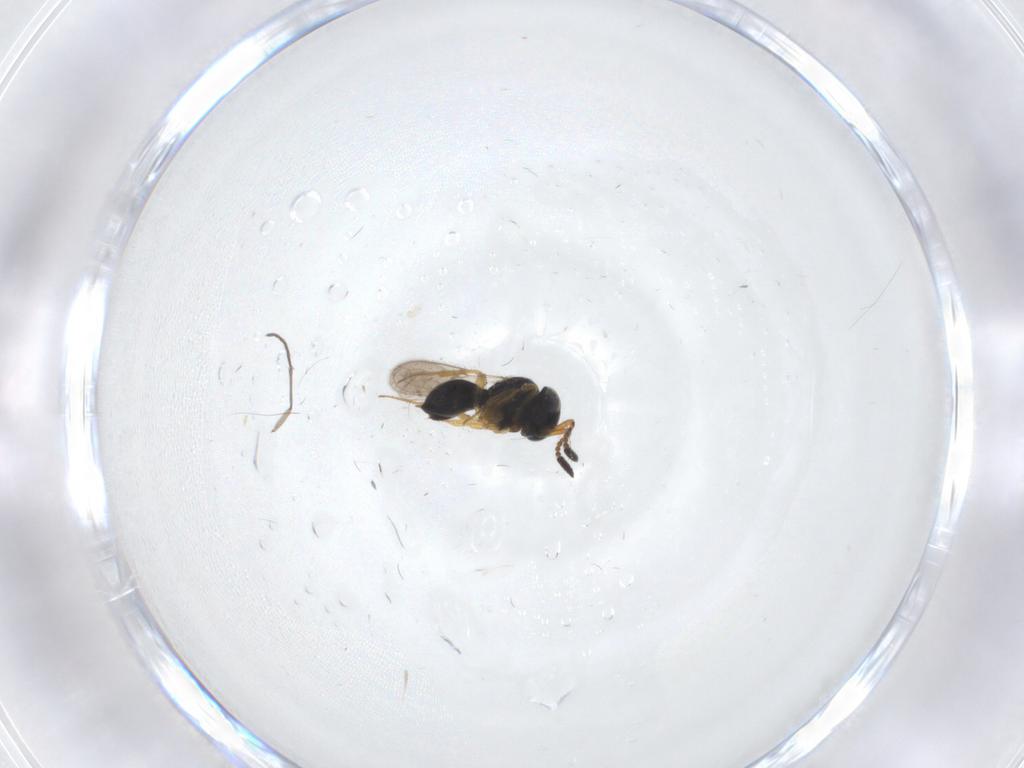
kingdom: Animalia
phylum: Arthropoda
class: Insecta
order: Hymenoptera
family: Scelionidae
